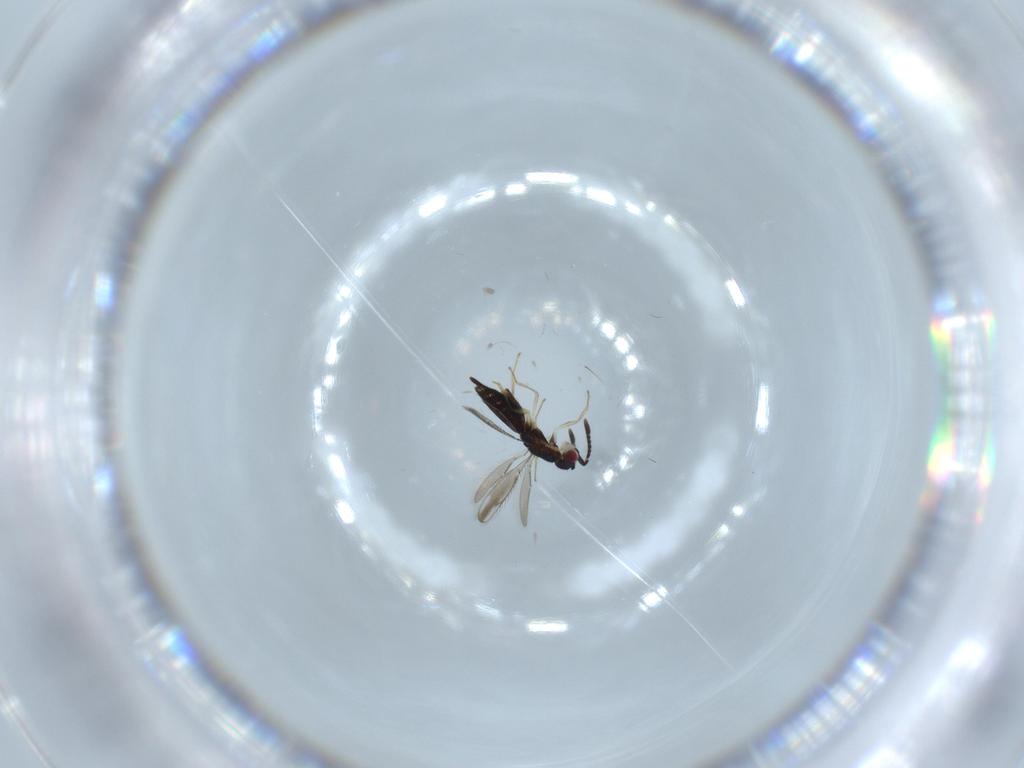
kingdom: Animalia
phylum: Arthropoda
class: Insecta
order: Hymenoptera
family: Pteromalidae
